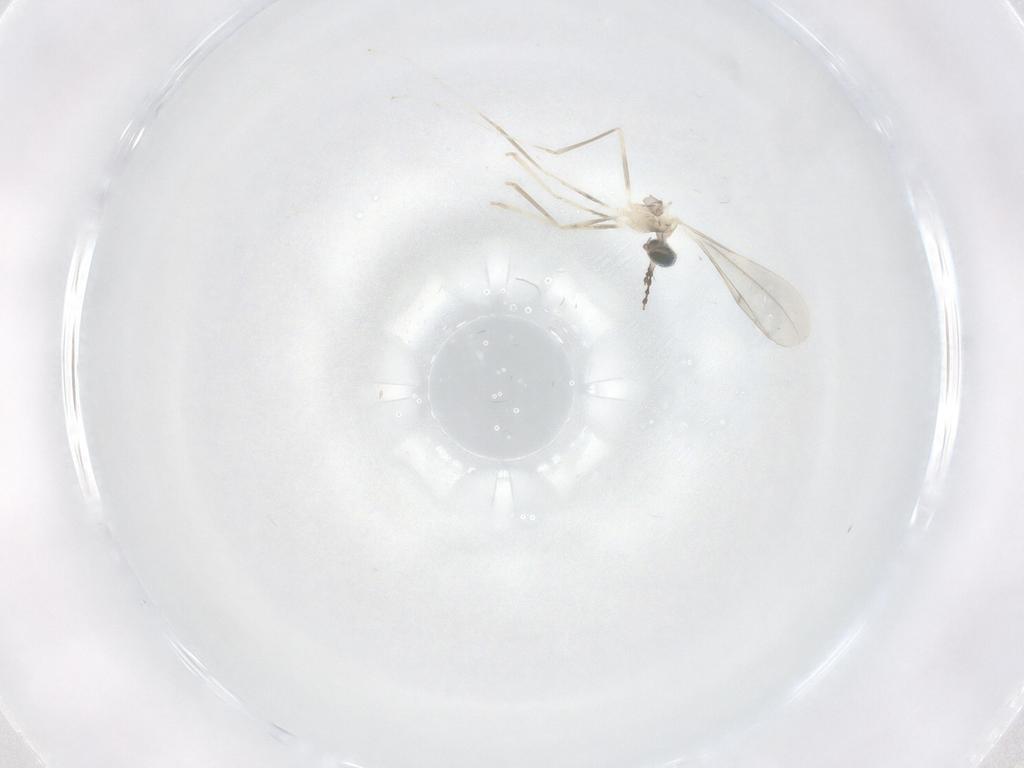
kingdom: Animalia
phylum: Arthropoda
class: Insecta
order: Diptera
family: Cecidomyiidae
